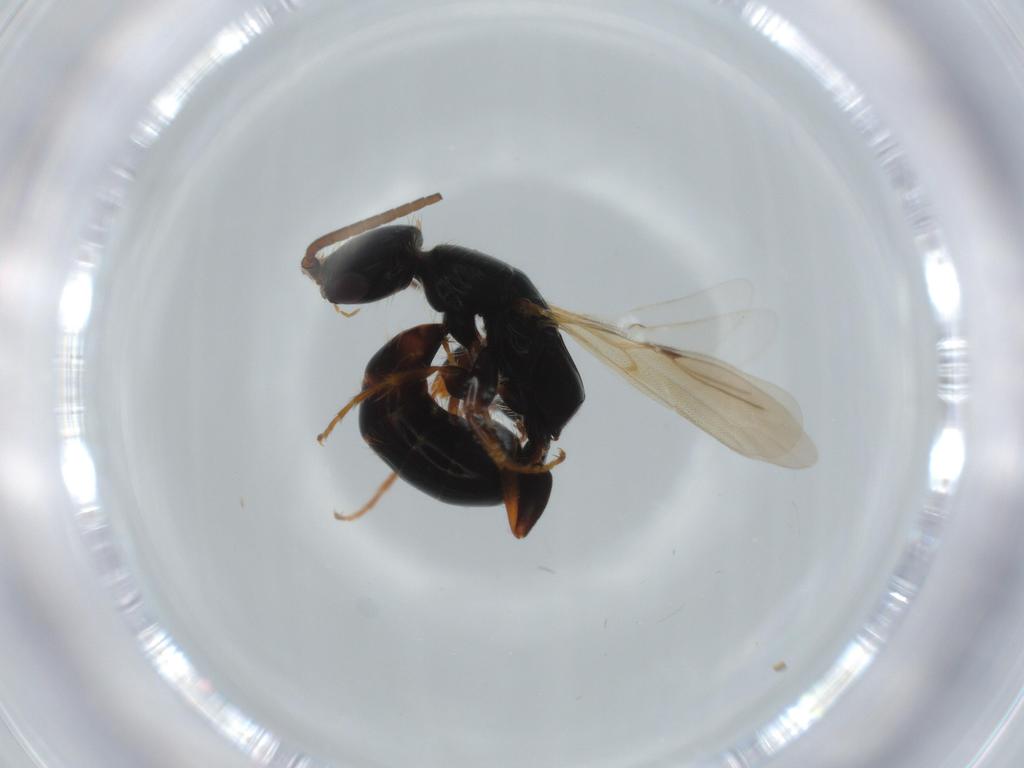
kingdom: Animalia
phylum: Arthropoda
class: Insecta
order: Hymenoptera
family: Bethylidae
